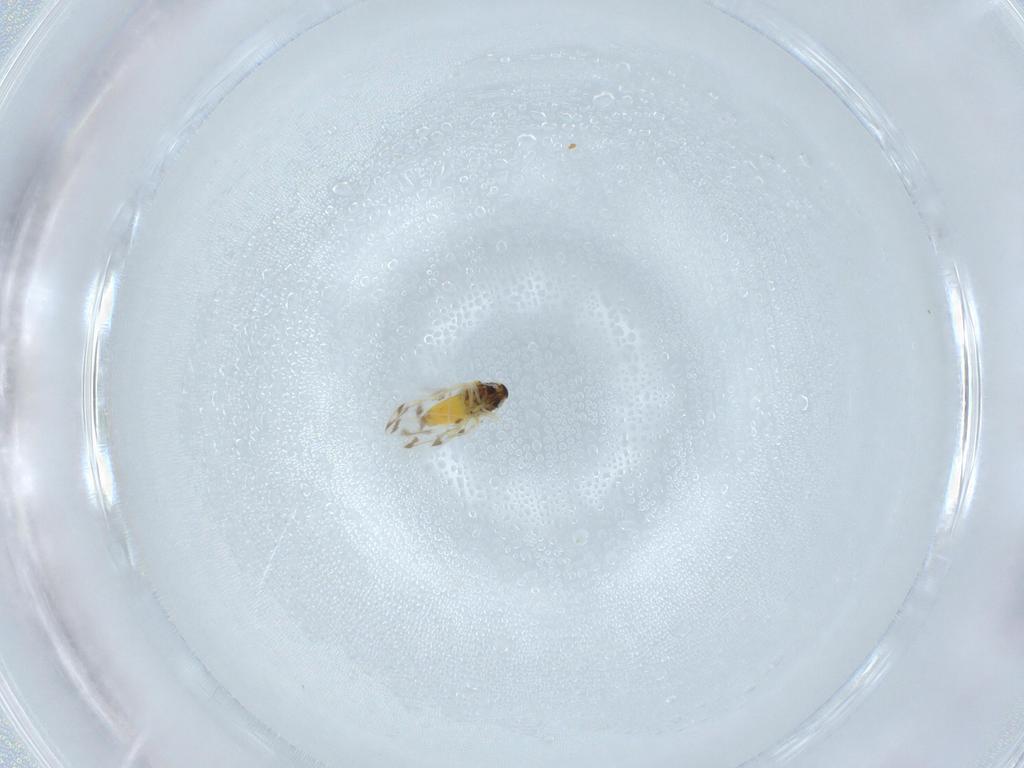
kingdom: Animalia
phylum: Arthropoda
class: Insecta
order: Hemiptera
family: Aleyrodidae
